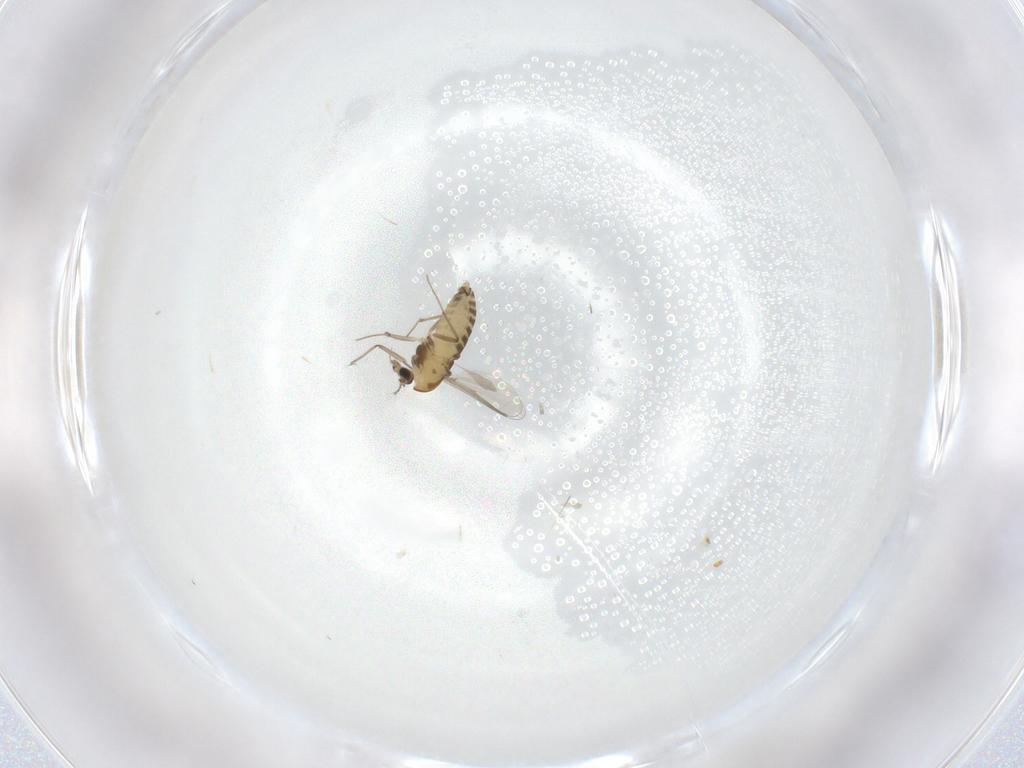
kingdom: Animalia
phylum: Arthropoda
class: Insecta
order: Diptera
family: Chironomidae
